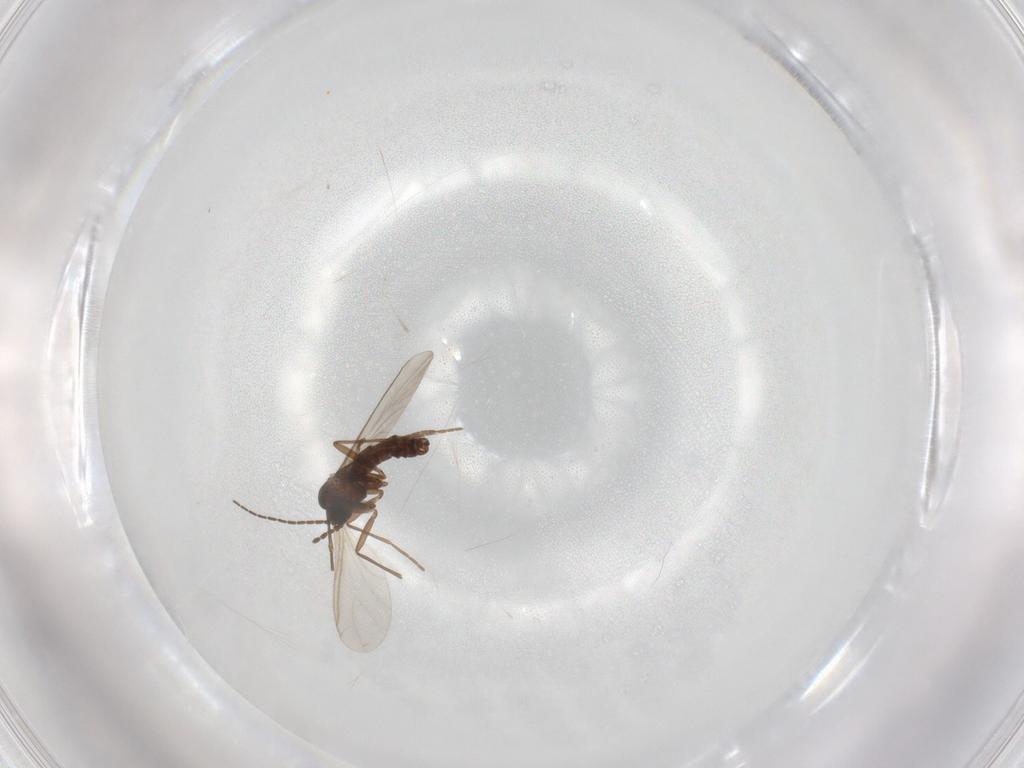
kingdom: Animalia
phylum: Arthropoda
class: Insecta
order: Diptera
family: Sciaridae
